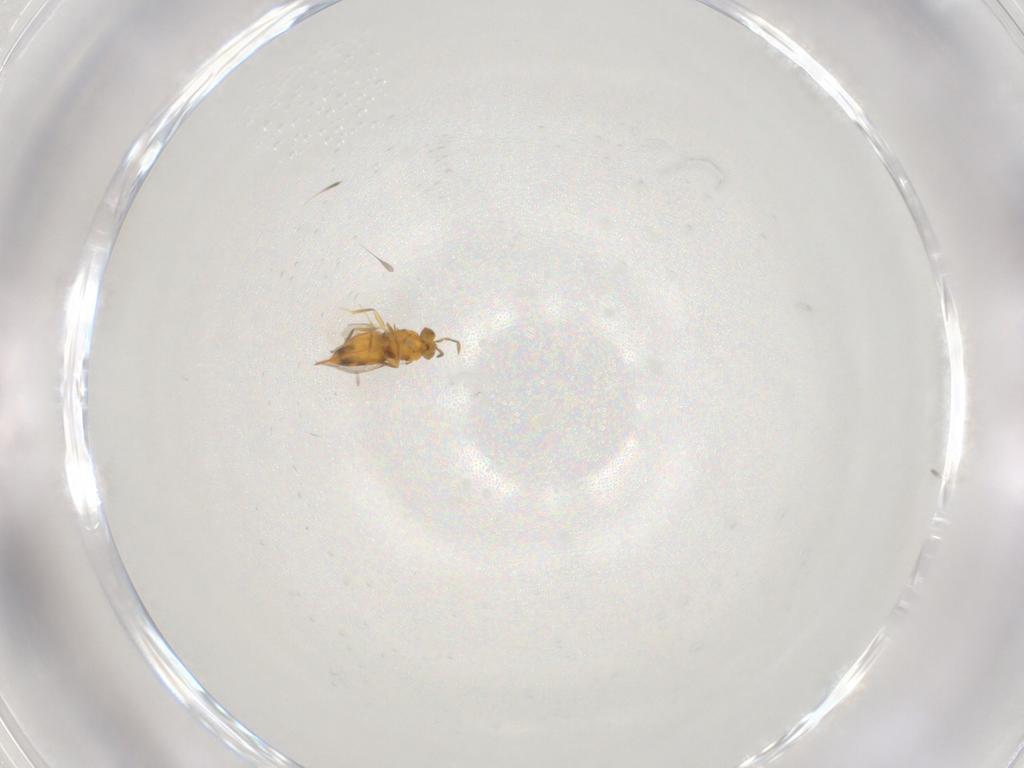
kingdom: Animalia
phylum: Arthropoda
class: Insecta
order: Hymenoptera
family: Aphelinidae
